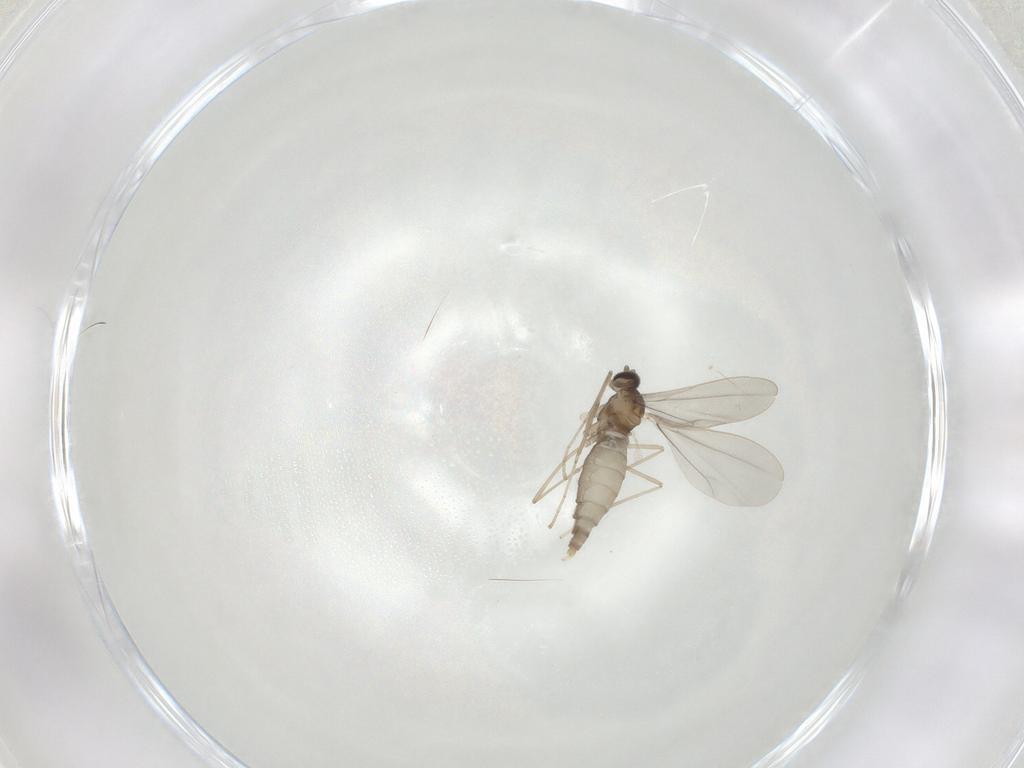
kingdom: Animalia
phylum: Arthropoda
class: Insecta
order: Diptera
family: Cecidomyiidae
